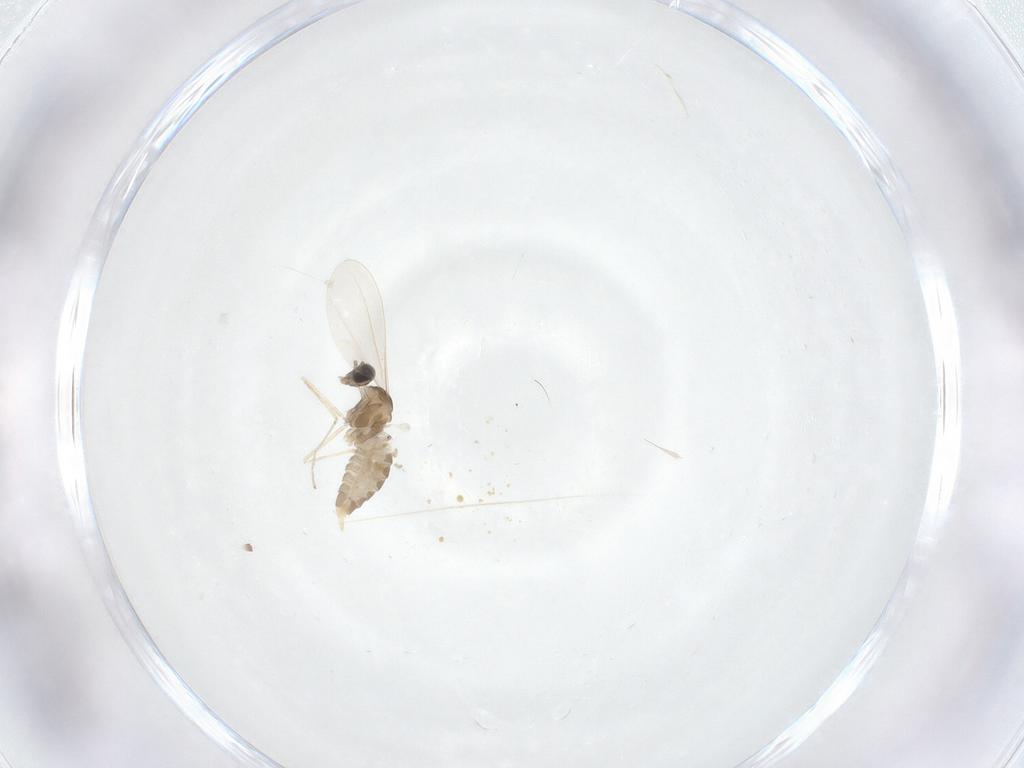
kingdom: Animalia
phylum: Arthropoda
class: Insecta
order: Diptera
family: Cecidomyiidae
